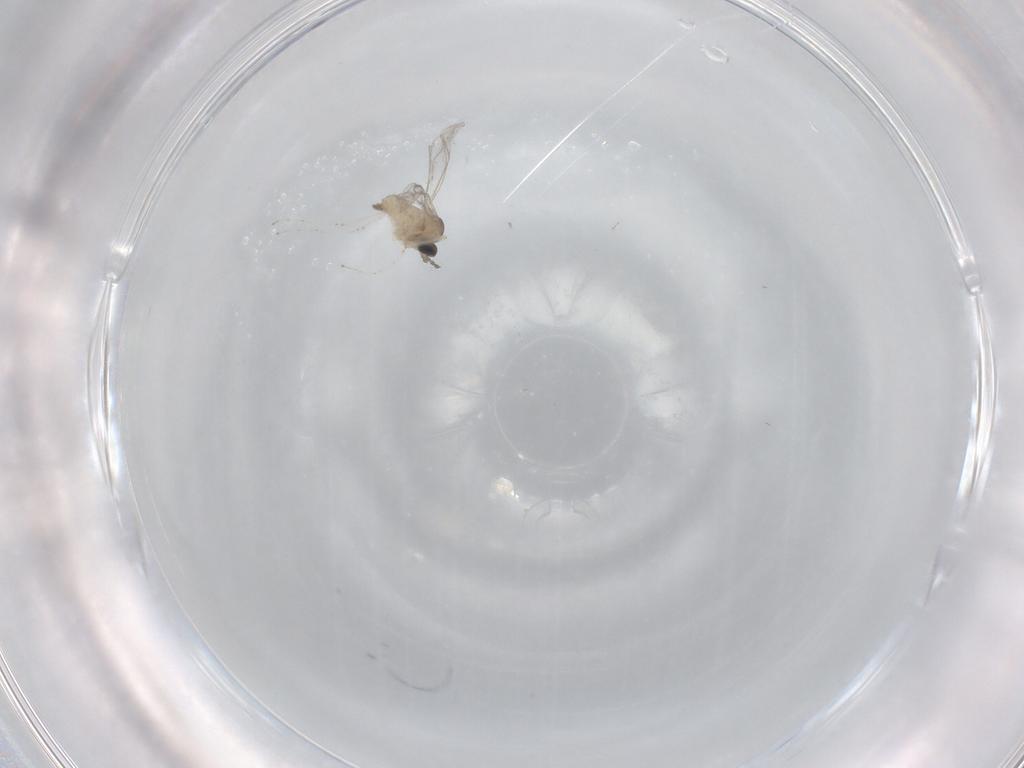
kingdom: Animalia
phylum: Arthropoda
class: Insecta
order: Diptera
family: Cecidomyiidae
